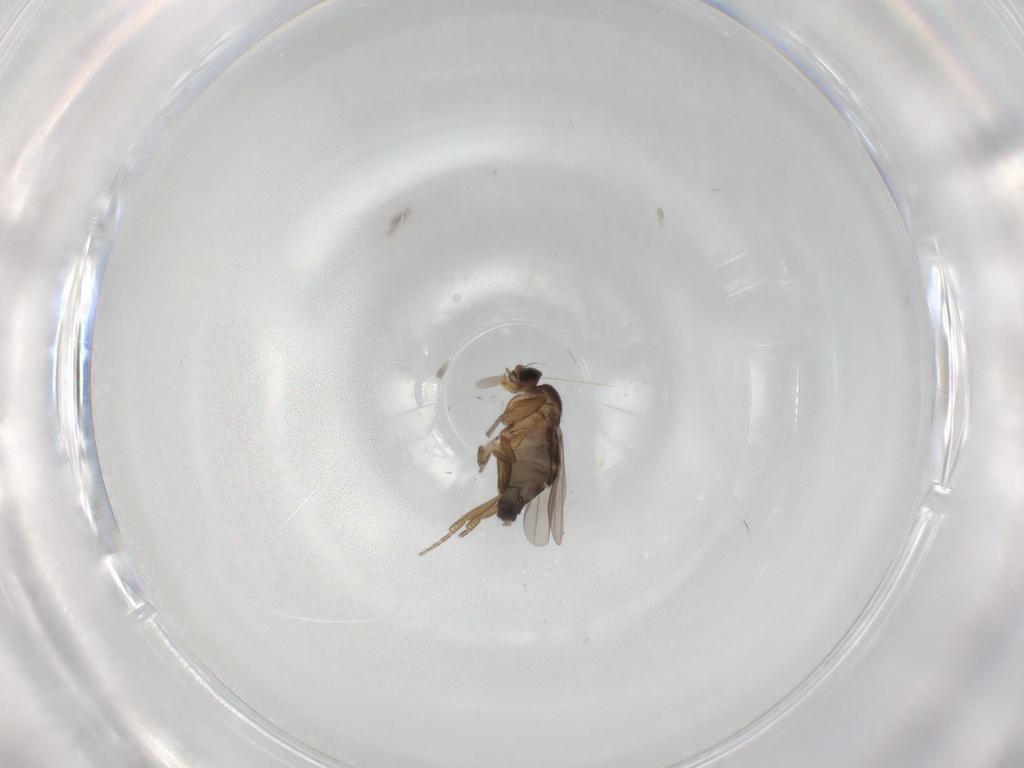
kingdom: Animalia
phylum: Arthropoda
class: Insecta
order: Diptera
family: Phoridae
